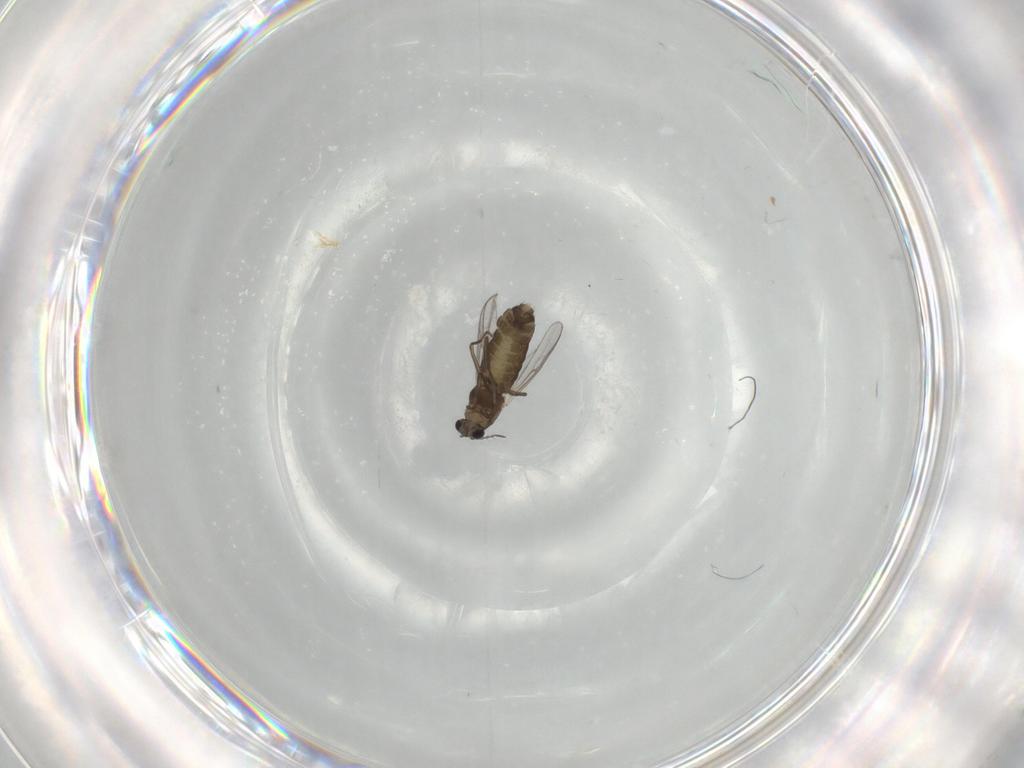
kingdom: Animalia
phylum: Arthropoda
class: Insecta
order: Diptera
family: Chironomidae
